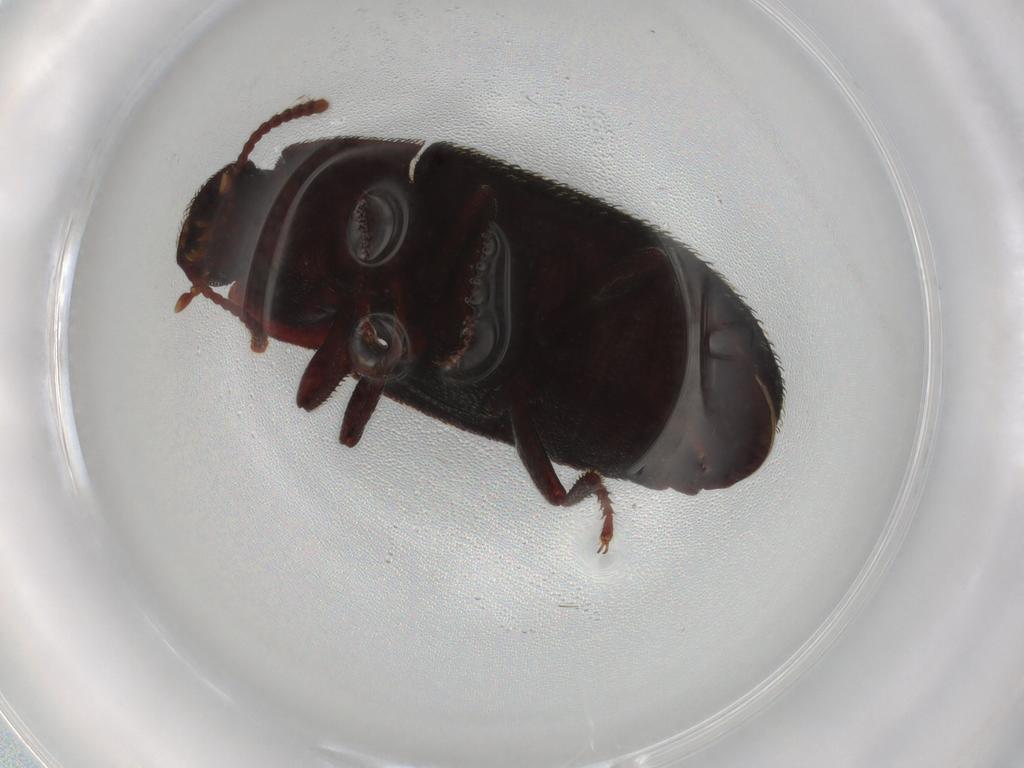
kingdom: Animalia
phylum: Arthropoda
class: Insecta
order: Coleoptera
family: Tenebrionidae
